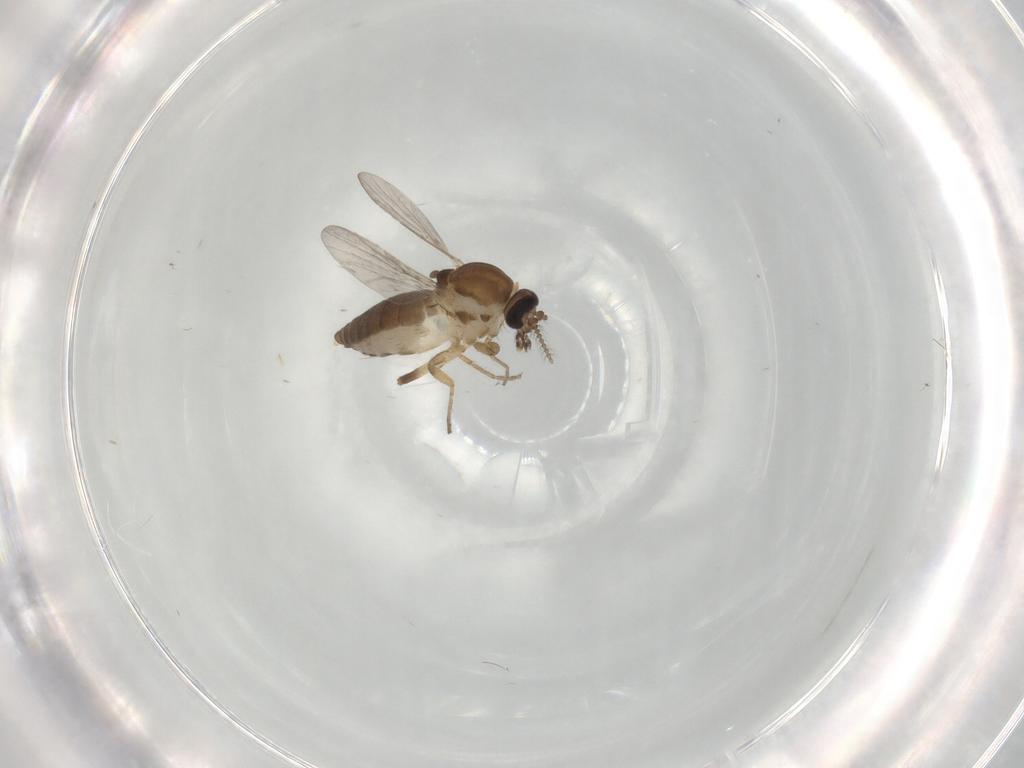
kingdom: Animalia
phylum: Arthropoda
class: Insecta
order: Diptera
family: Ceratopogonidae
